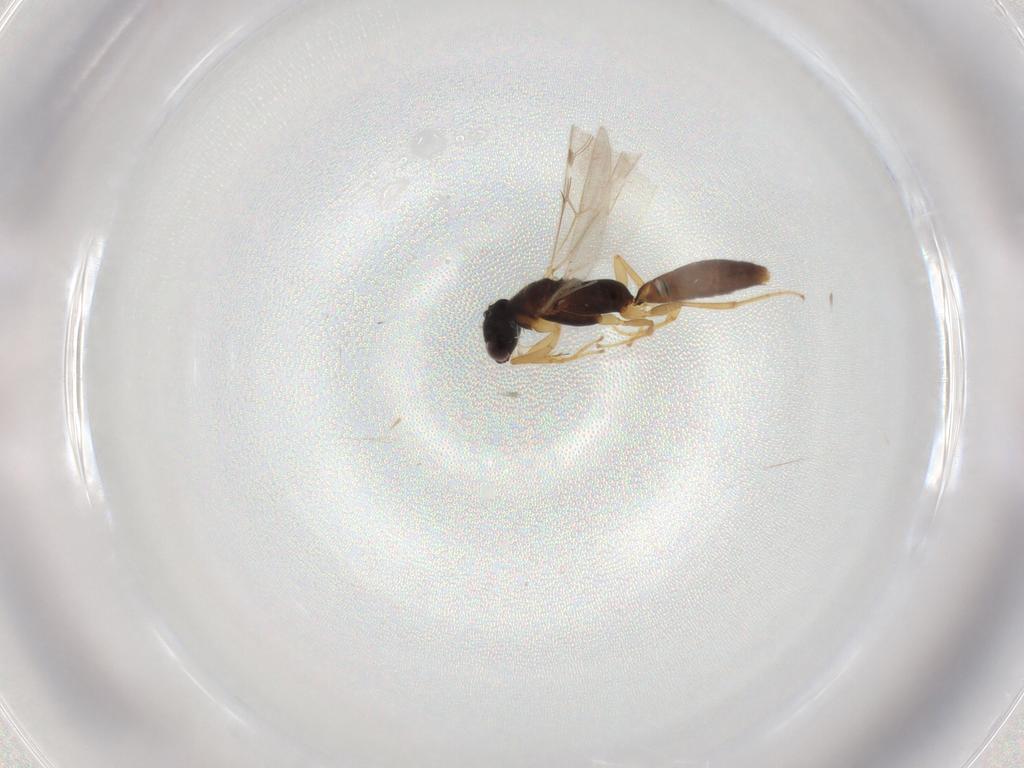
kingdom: Animalia
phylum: Arthropoda
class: Insecta
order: Hymenoptera
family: Bethylidae
